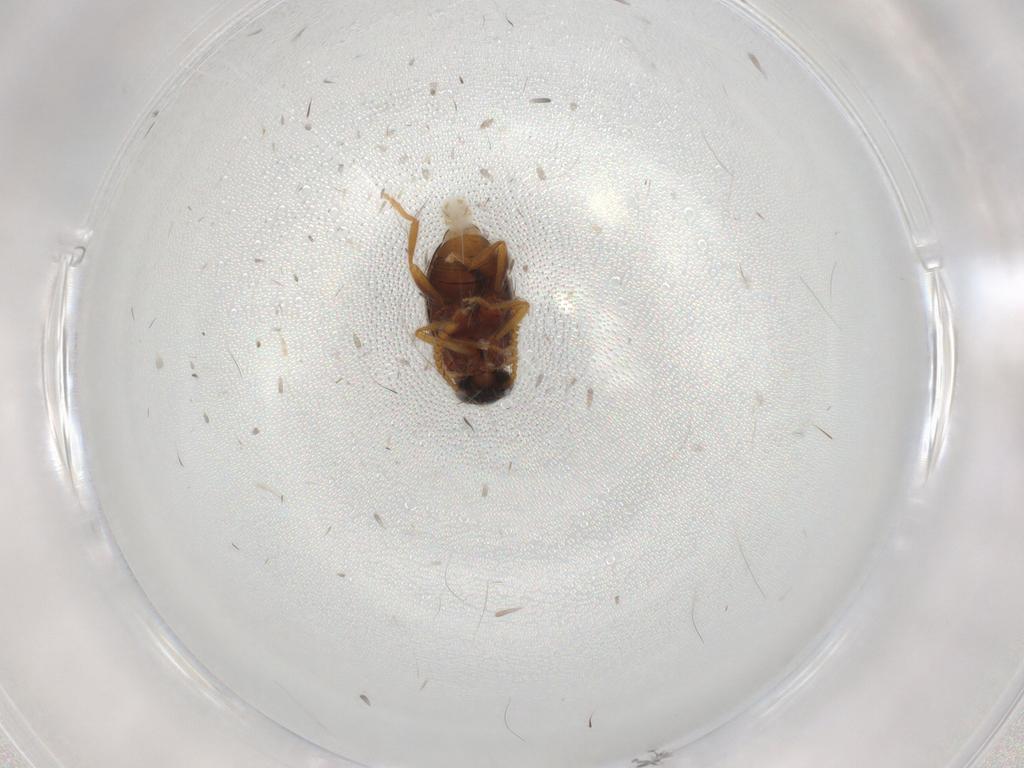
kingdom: Animalia
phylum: Arthropoda
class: Insecta
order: Coleoptera
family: Aderidae
